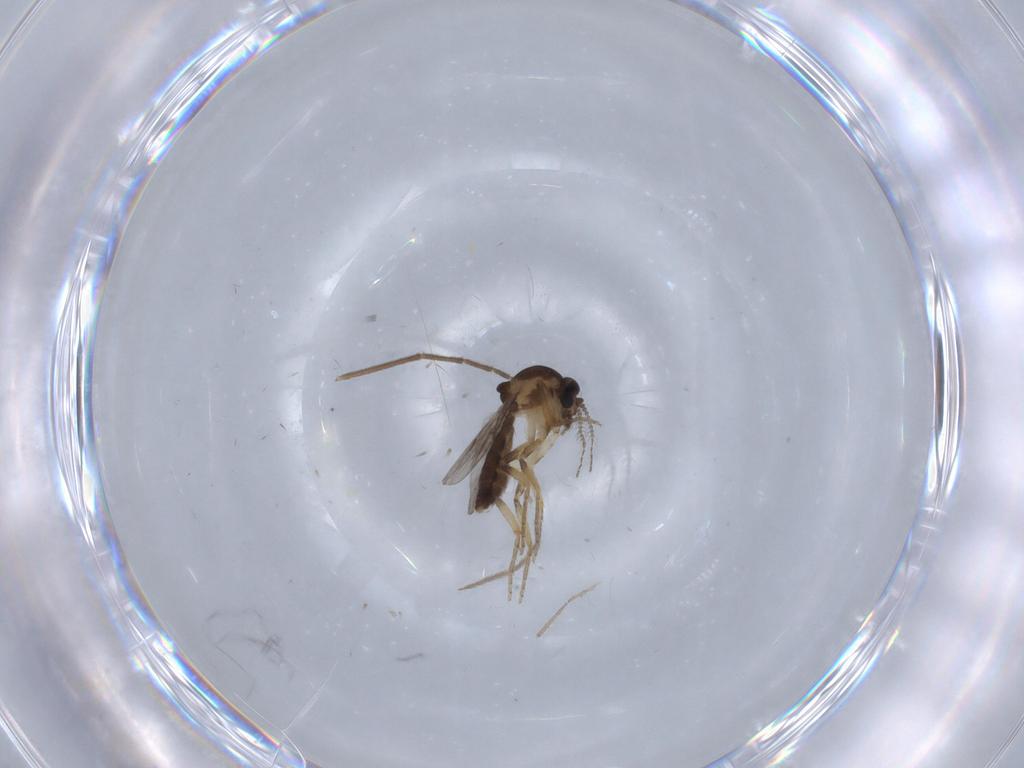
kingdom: Animalia
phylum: Arthropoda
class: Insecta
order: Diptera
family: Ceratopogonidae
